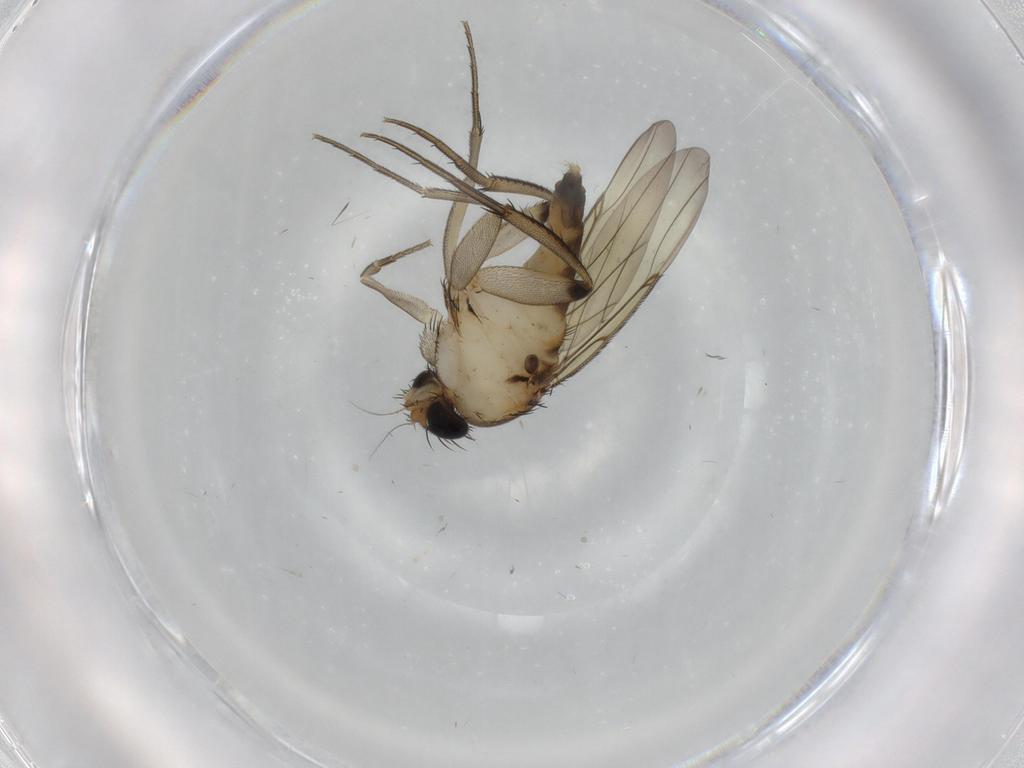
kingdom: Animalia
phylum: Arthropoda
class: Insecta
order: Diptera
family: Phoridae
